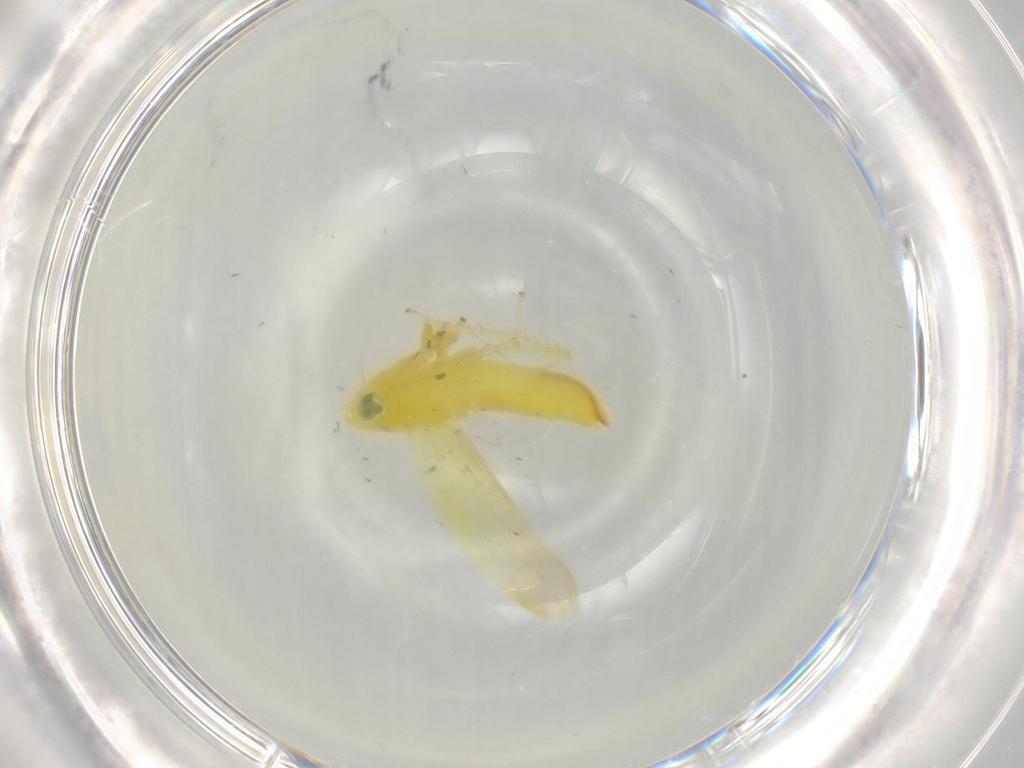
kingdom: Animalia
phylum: Arthropoda
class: Insecta
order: Hemiptera
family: Cicadellidae
